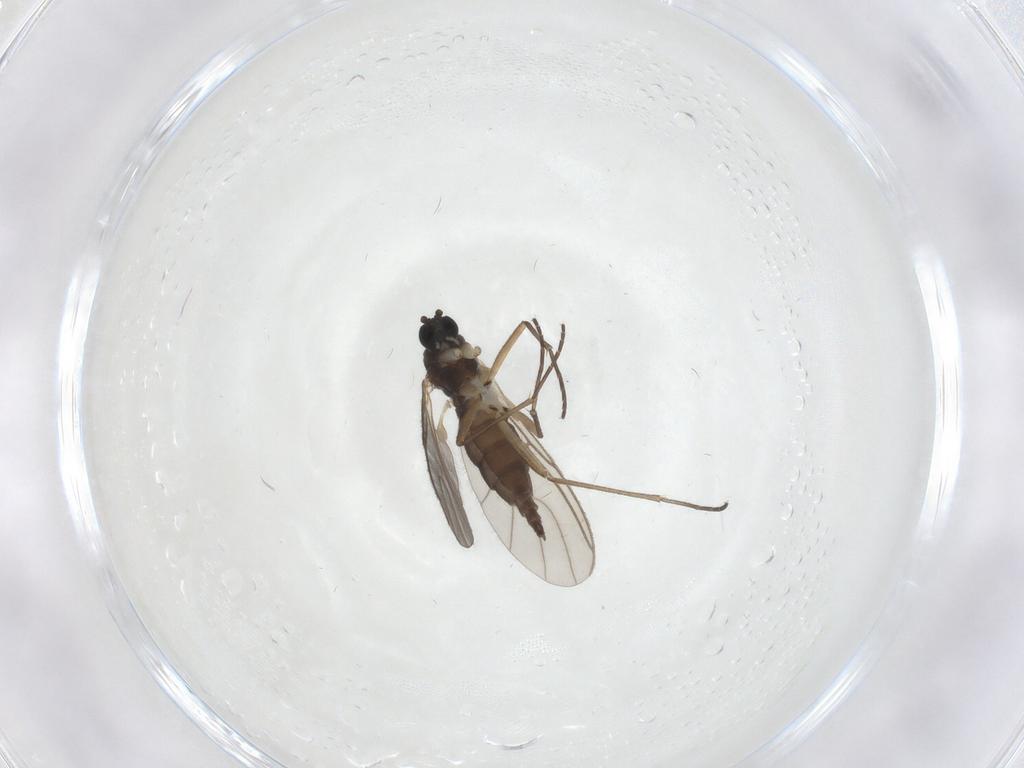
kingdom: Animalia
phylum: Arthropoda
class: Insecta
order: Diptera
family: Sciaridae
